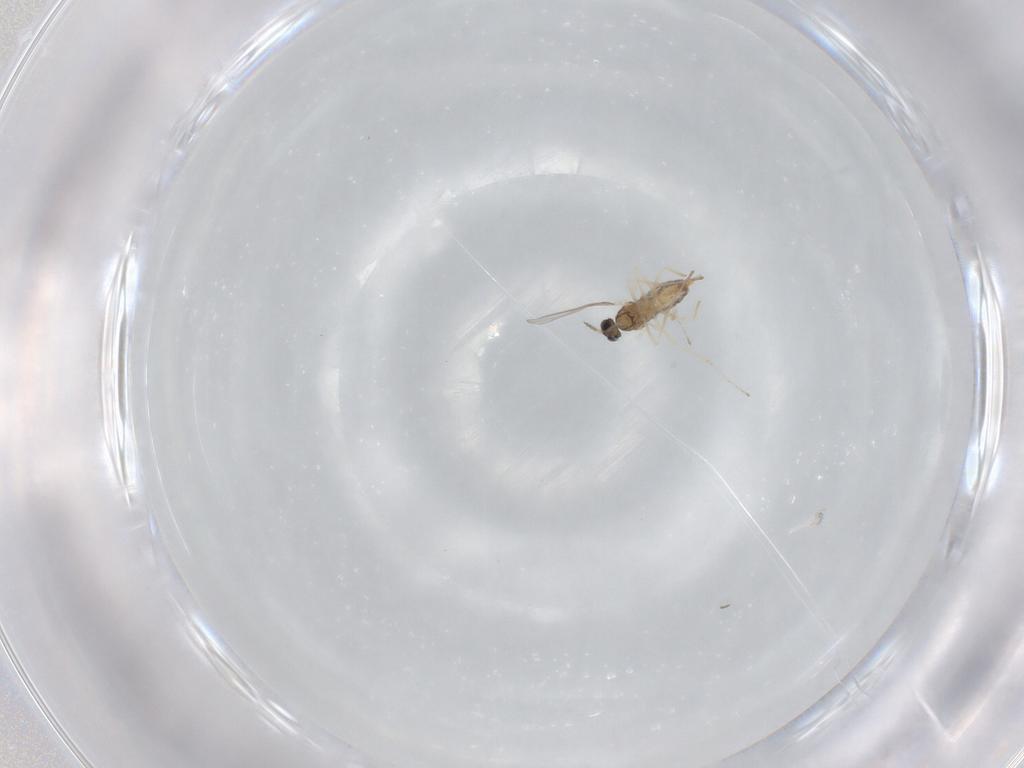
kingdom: Animalia
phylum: Arthropoda
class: Insecta
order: Diptera
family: Cecidomyiidae
